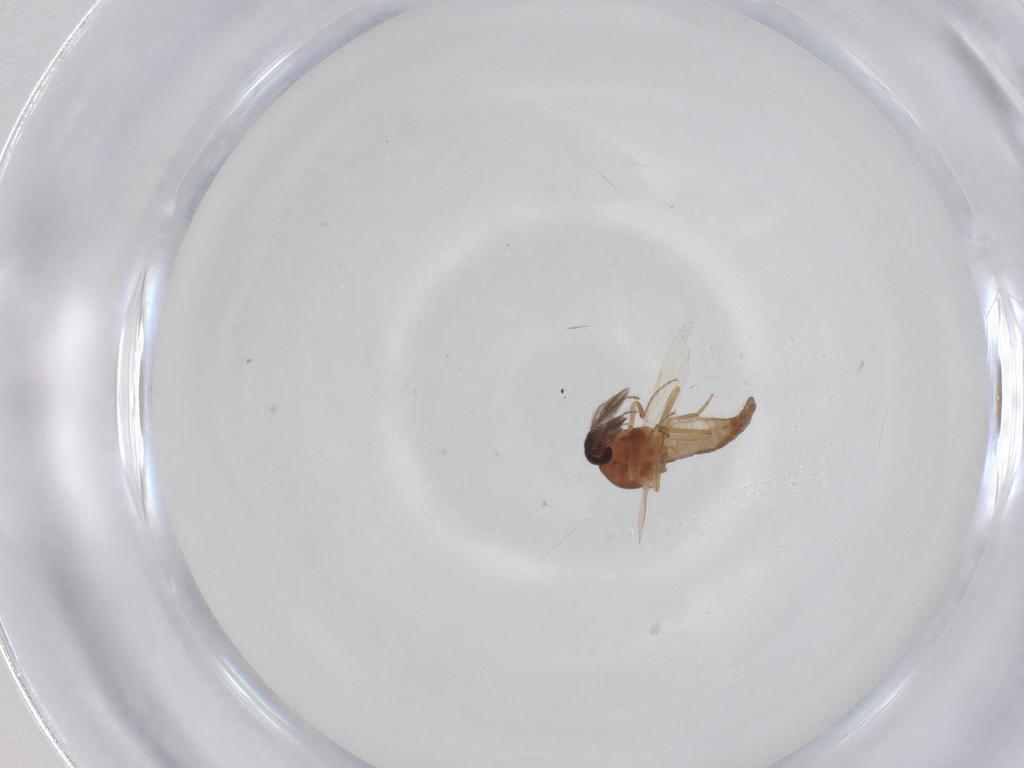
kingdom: Animalia
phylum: Arthropoda
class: Insecta
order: Diptera
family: Ceratopogonidae
